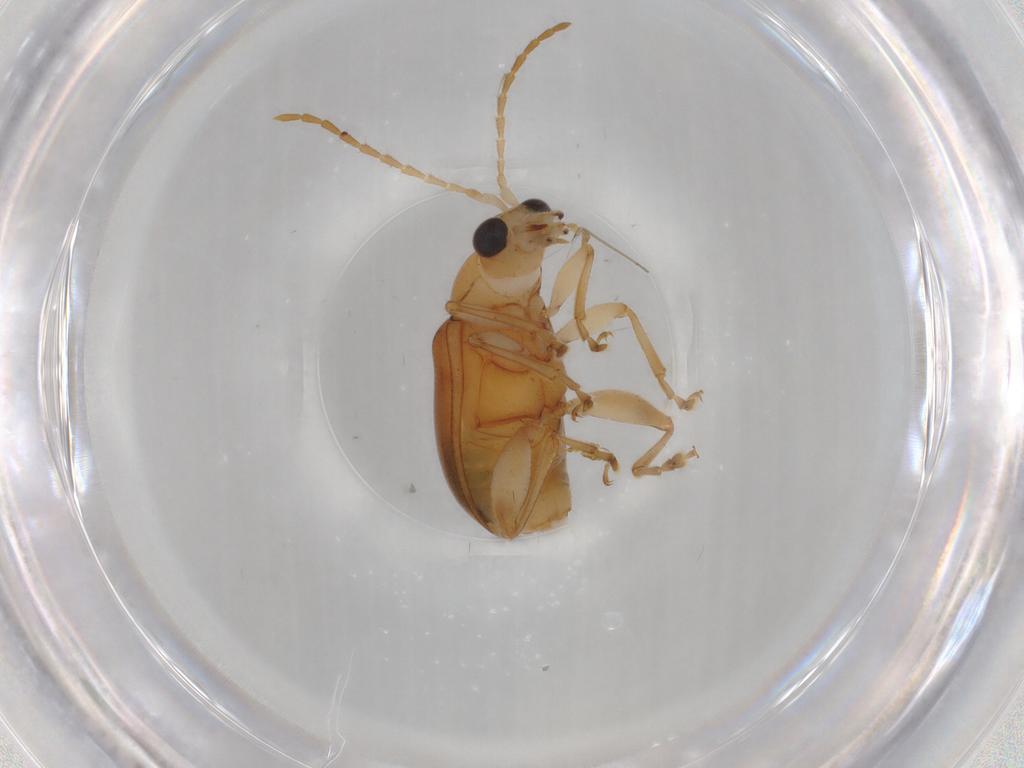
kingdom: Animalia
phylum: Arthropoda
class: Insecta
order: Coleoptera
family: Chrysomelidae
